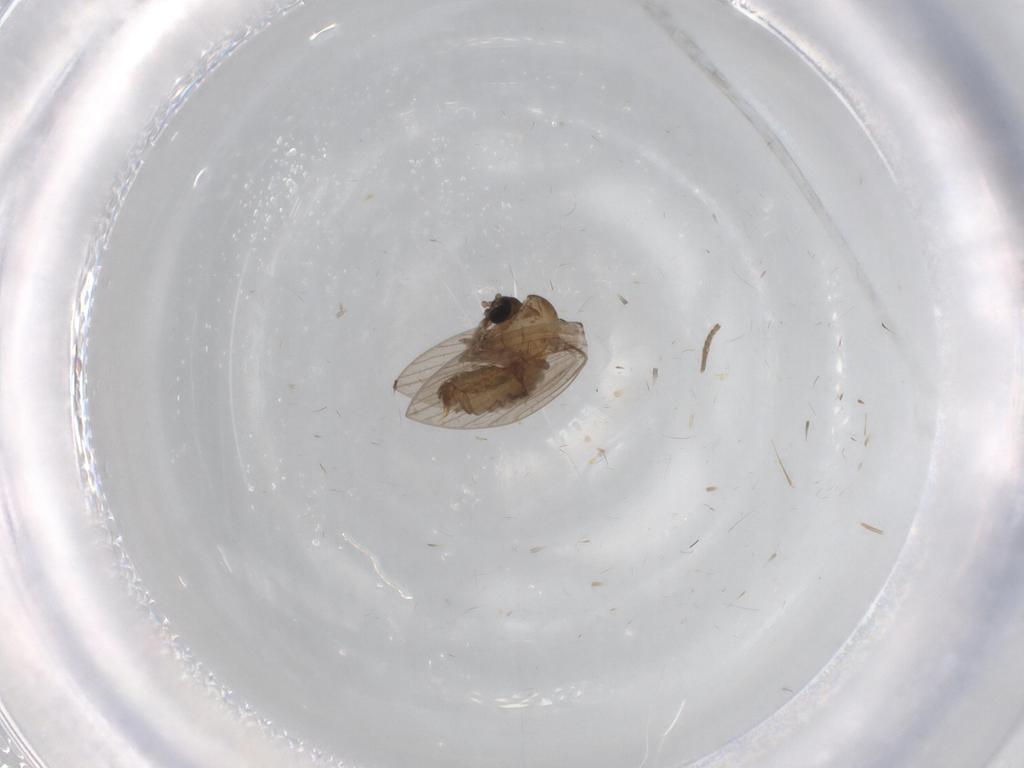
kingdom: Animalia
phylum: Arthropoda
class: Insecta
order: Diptera
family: Psychodidae
